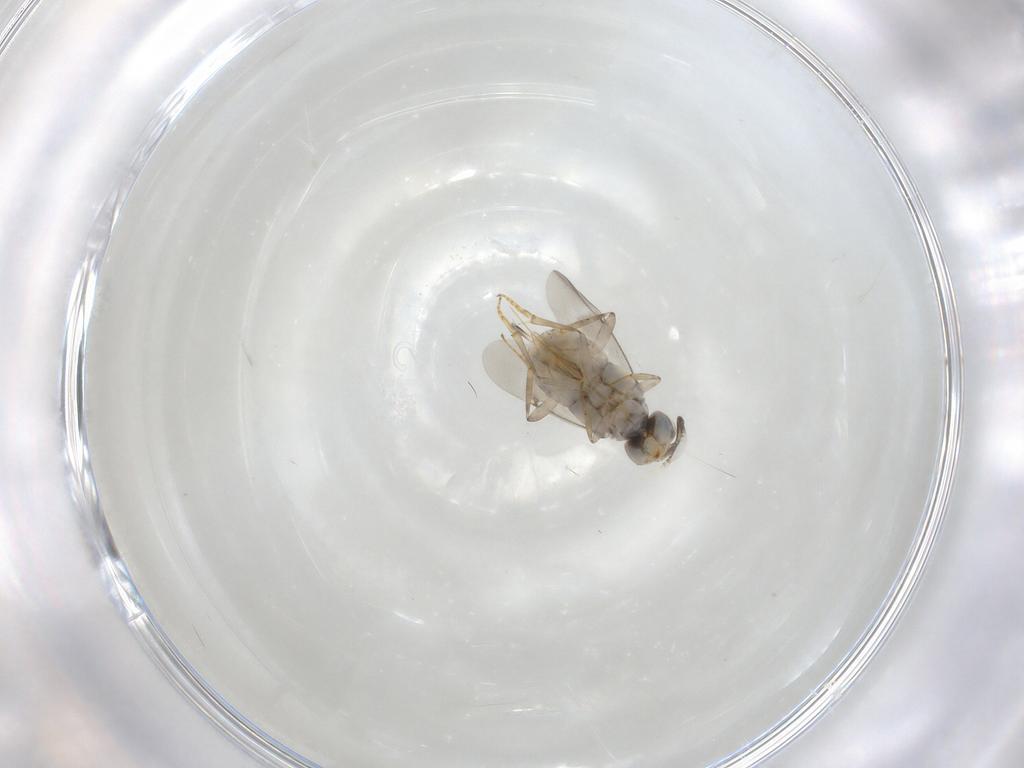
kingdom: Animalia
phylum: Arthropoda
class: Insecta
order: Hymenoptera
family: Encyrtidae
